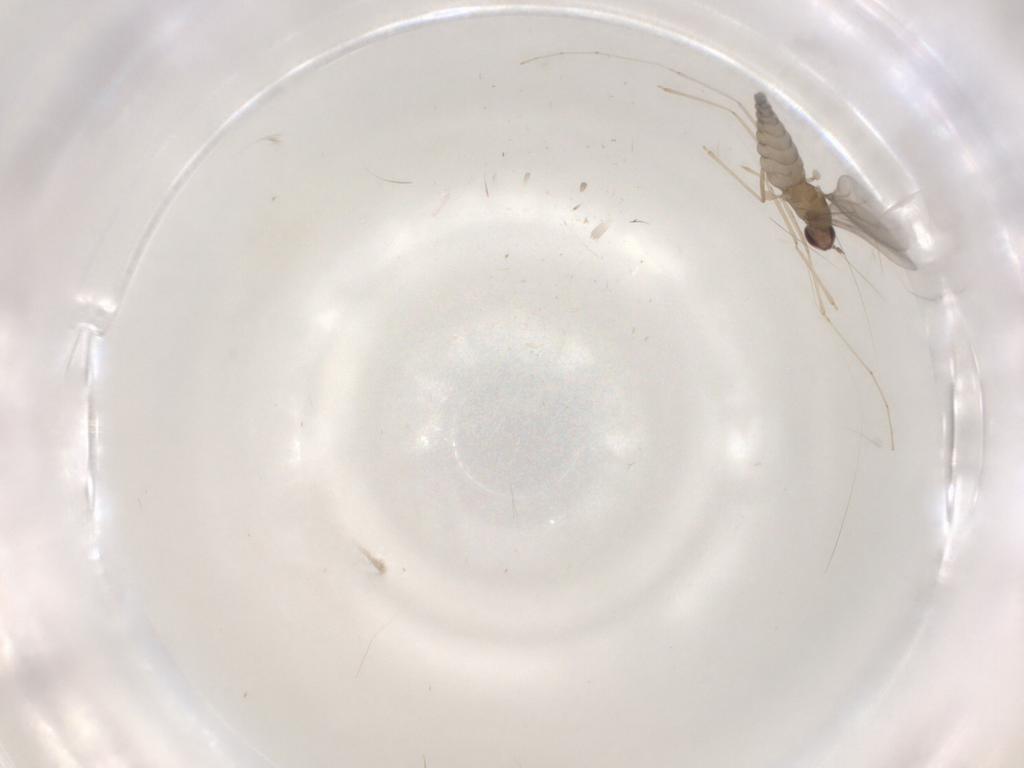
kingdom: Animalia
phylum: Arthropoda
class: Insecta
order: Diptera
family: Cecidomyiidae
